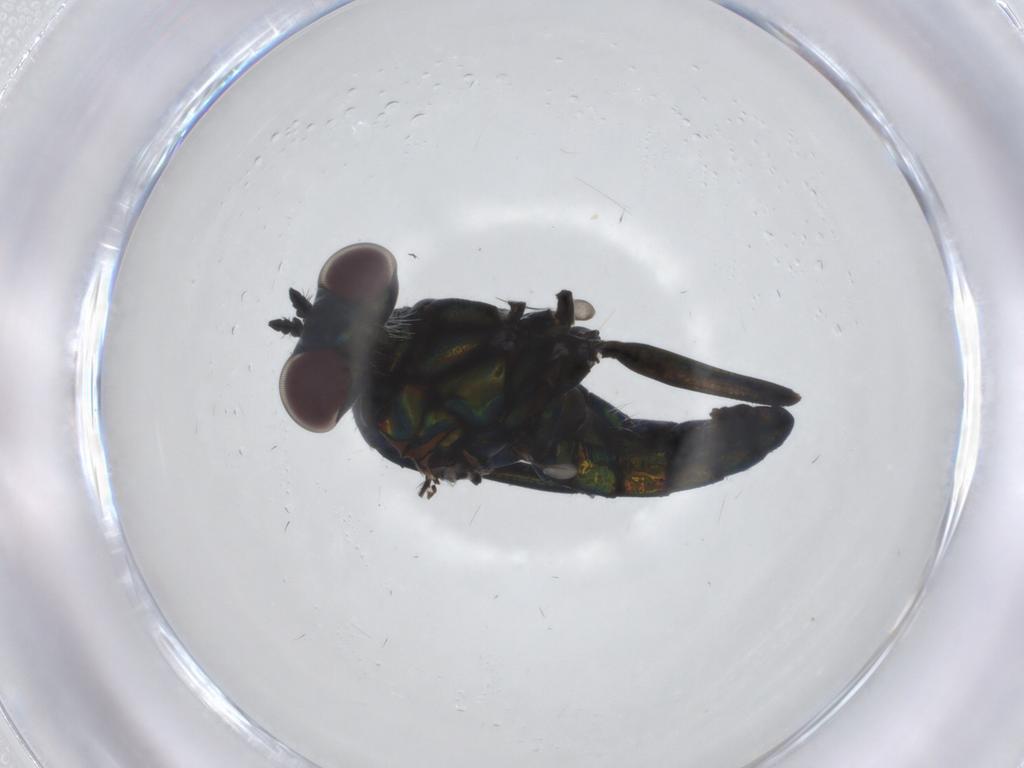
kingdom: Animalia
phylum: Arthropoda
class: Insecta
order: Diptera
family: Dolichopodidae
